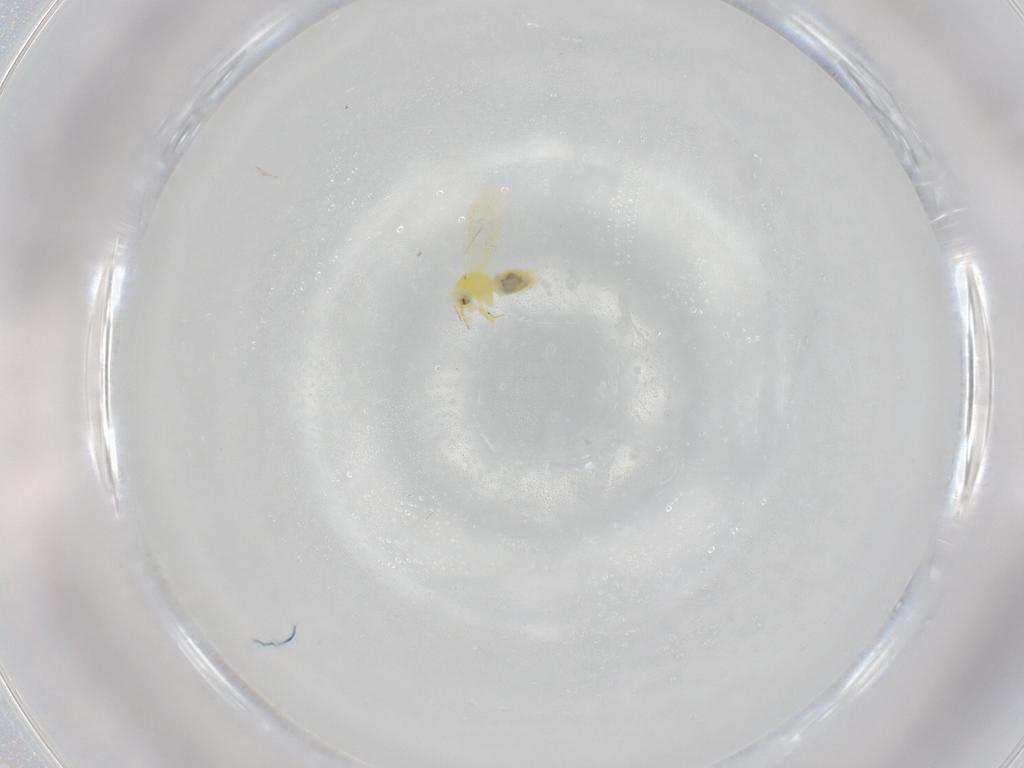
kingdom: Animalia
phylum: Arthropoda
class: Insecta
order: Hemiptera
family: Aleyrodidae
